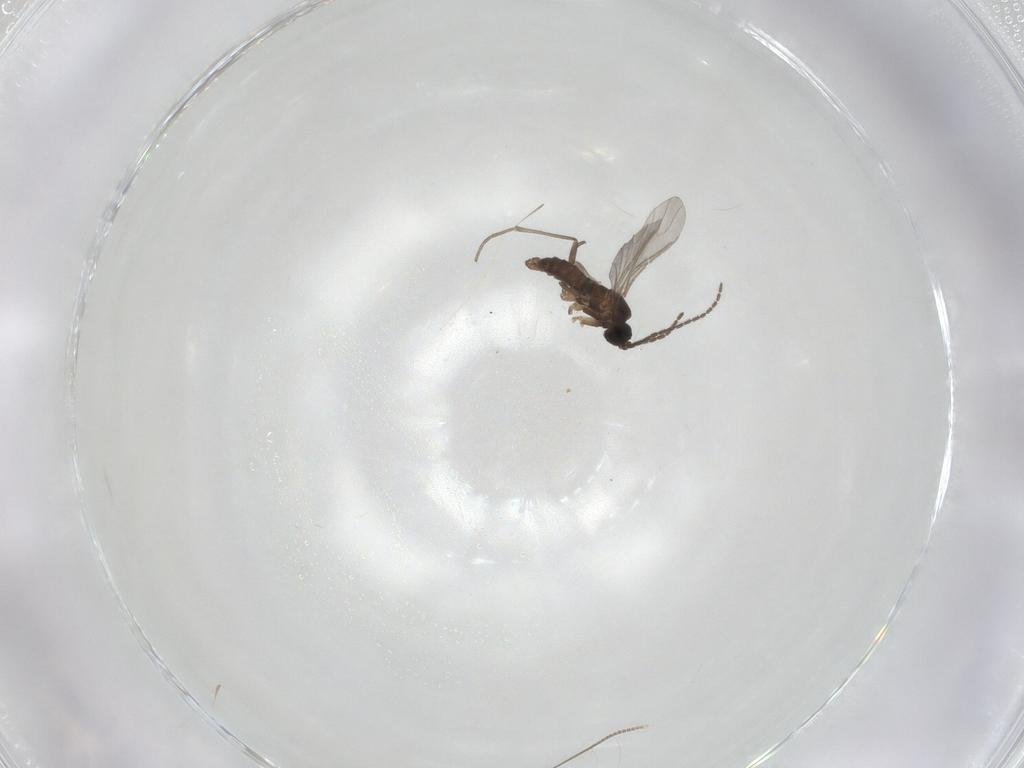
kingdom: Animalia
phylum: Arthropoda
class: Insecta
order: Diptera
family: Sciaridae
